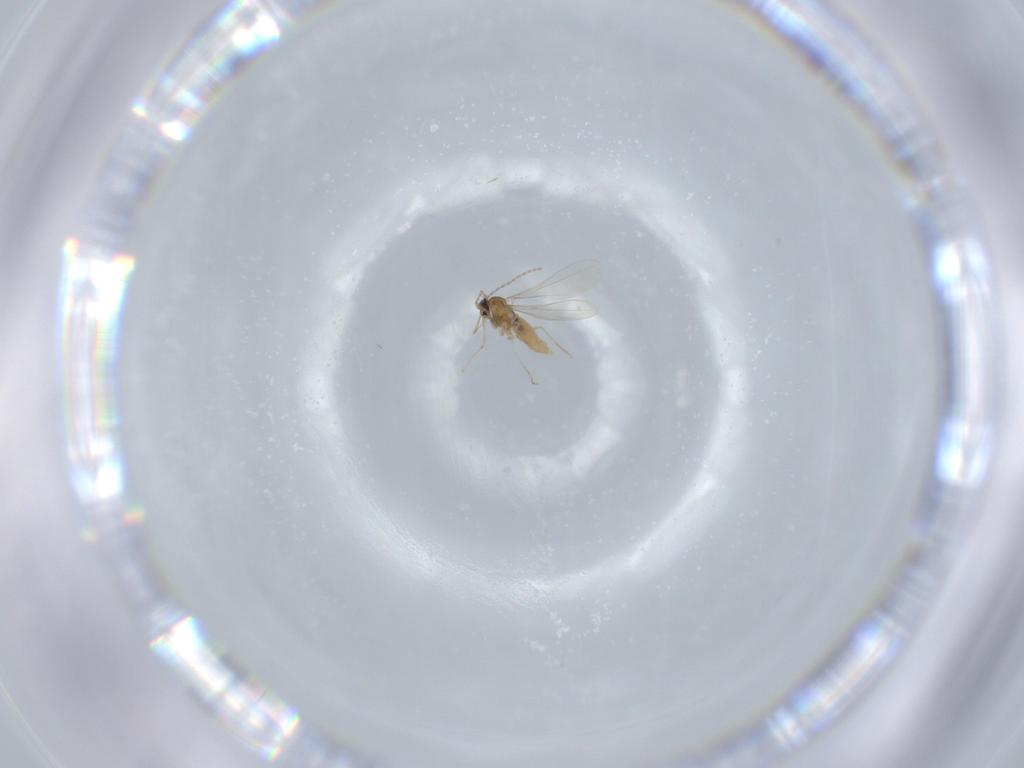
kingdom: Animalia
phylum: Arthropoda
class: Insecta
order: Diptera
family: Cecidomyiidae
